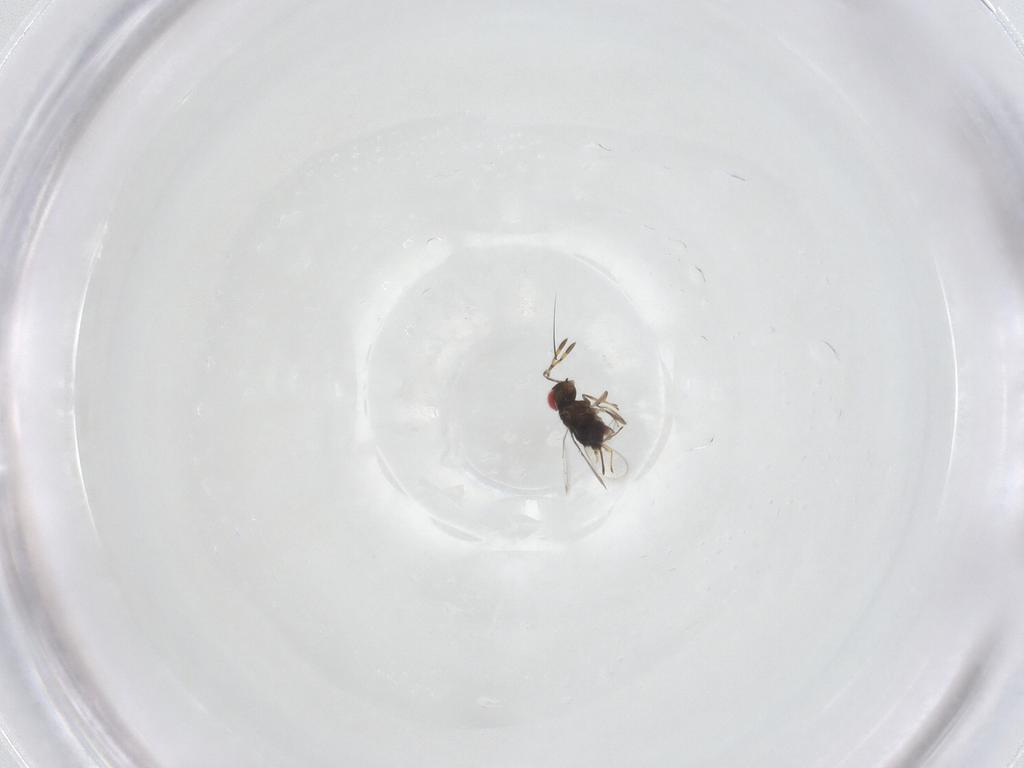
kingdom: Animalia
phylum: Arthropoda
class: Insecta
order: Hymenoptera
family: Azotidae
